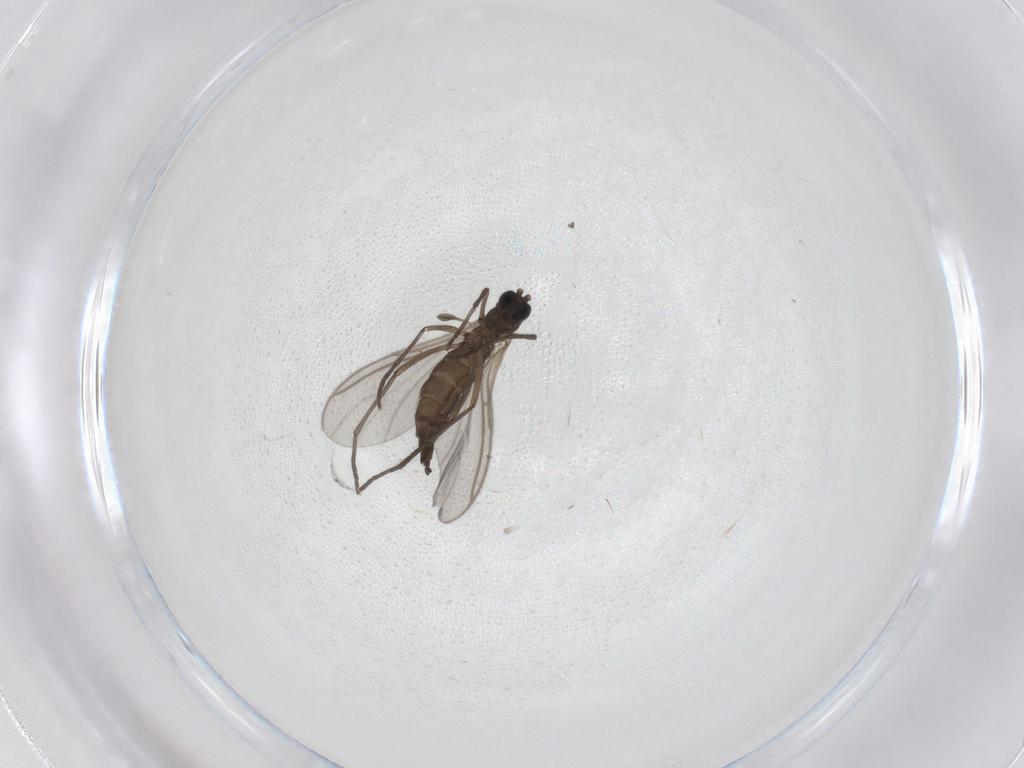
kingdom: Animalia
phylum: Arthropoda
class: Insecta
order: Diptera
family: Sciaridae
